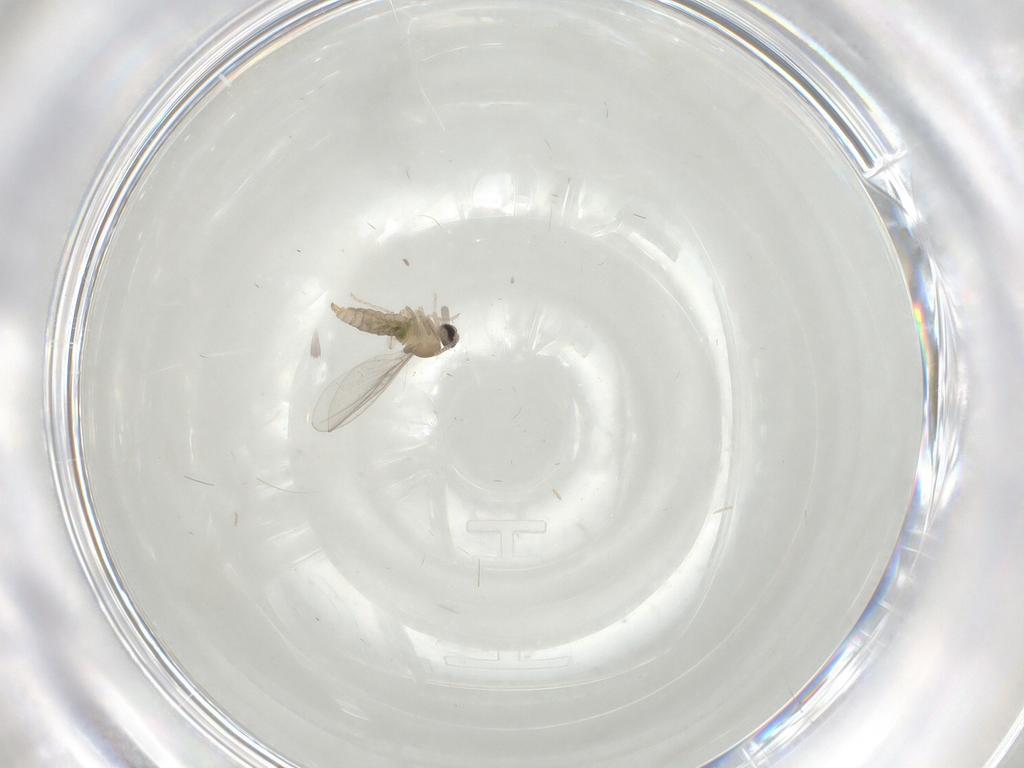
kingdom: Animalia
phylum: Arthropoda
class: Insecta
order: Diptera
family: Cecidomyiidae
